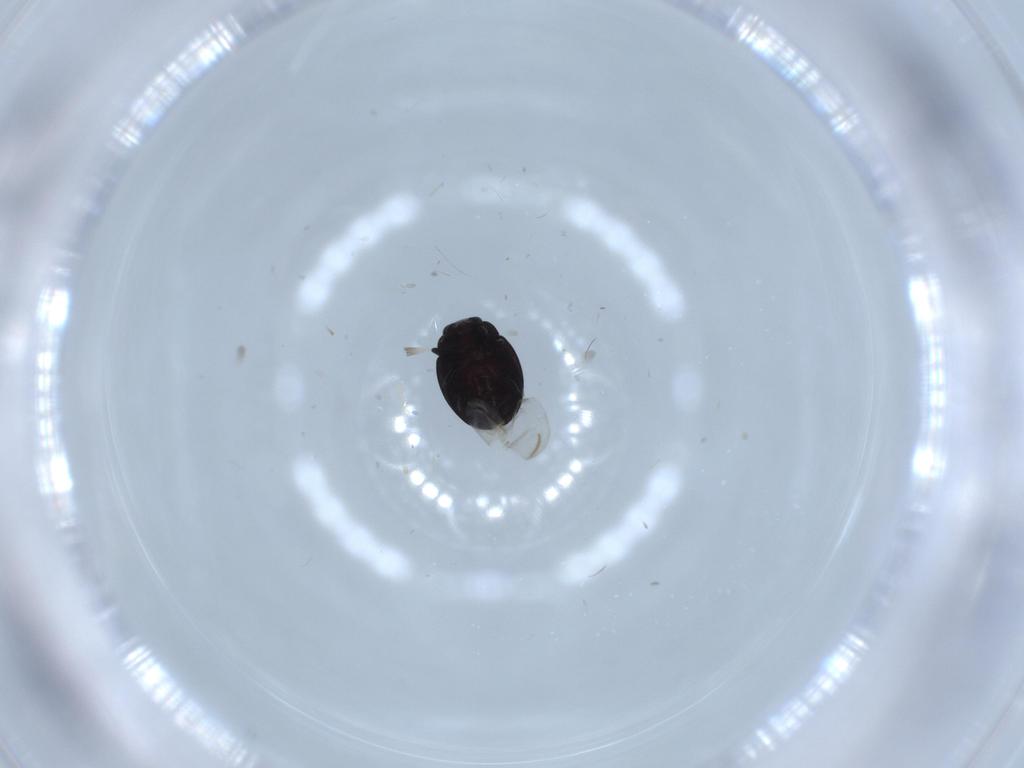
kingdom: Animalia
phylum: Arthropoda
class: Insecta
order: Coleoptera
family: Coccinellidae
